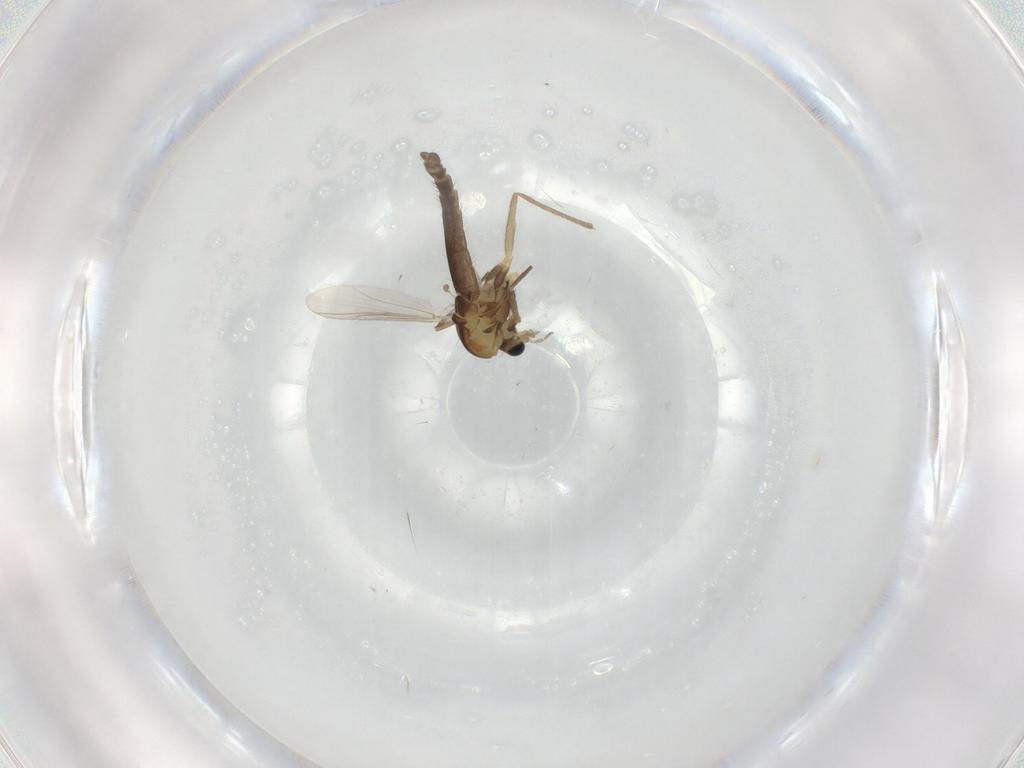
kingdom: Animalia
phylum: Arthropoda
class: Insecta
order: Diptera
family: Chironomidae
